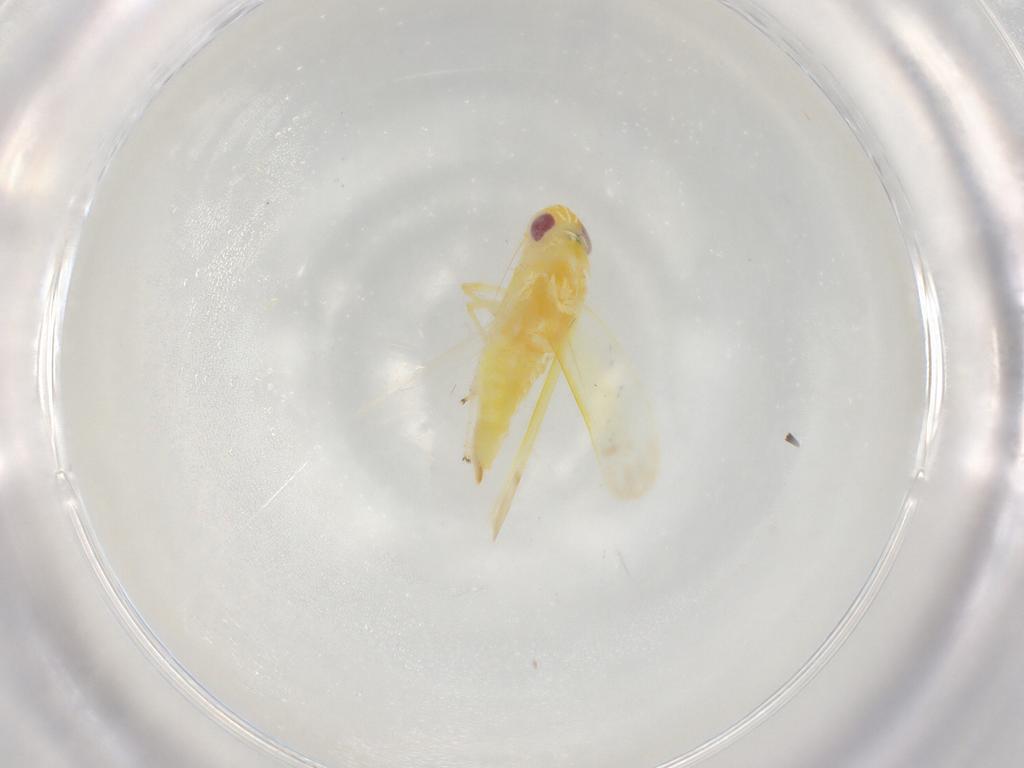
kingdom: Animalia
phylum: Arthropoda
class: Insecta
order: Hemiptera
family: Cicadellidae
